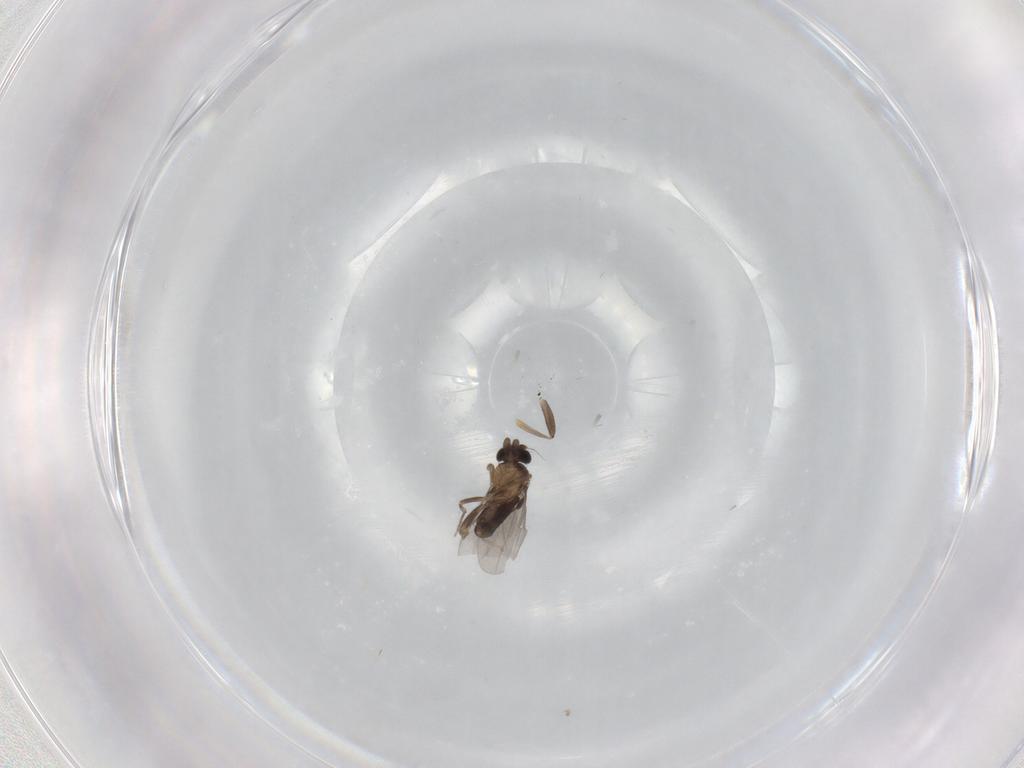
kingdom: Animalia
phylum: Arthropoda
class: Insecta
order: Diptera
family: Cecidomyiidae
